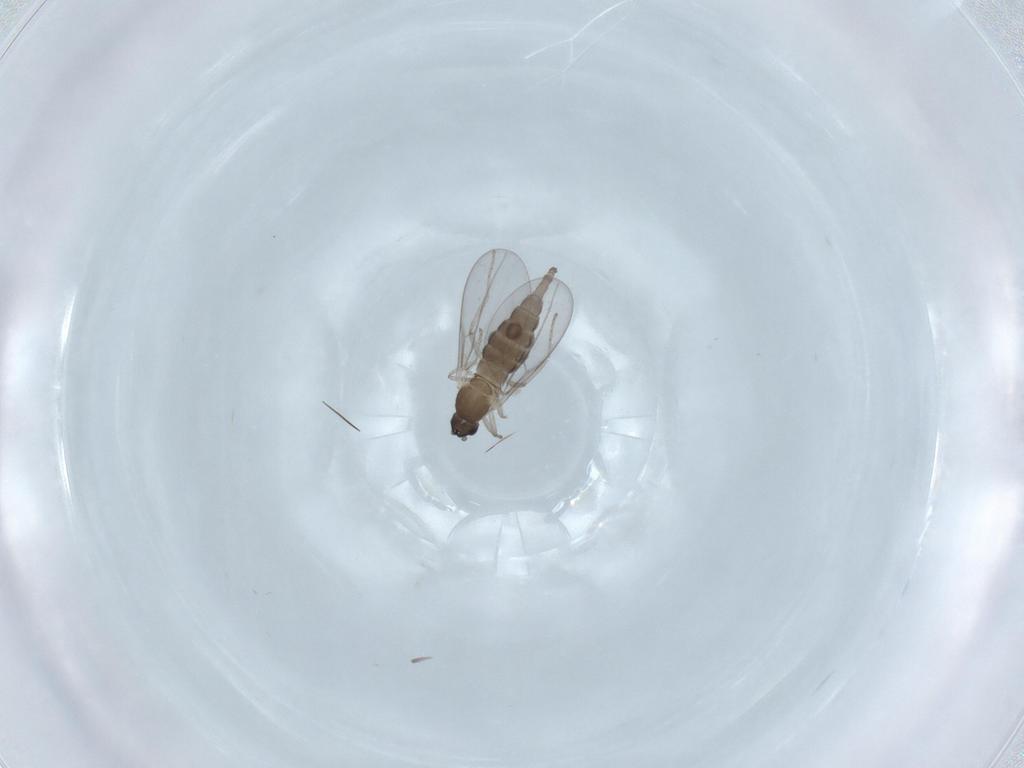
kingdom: Animalia
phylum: Arthropoda
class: Insecta
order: Diptera
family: Cecidomyiidae
